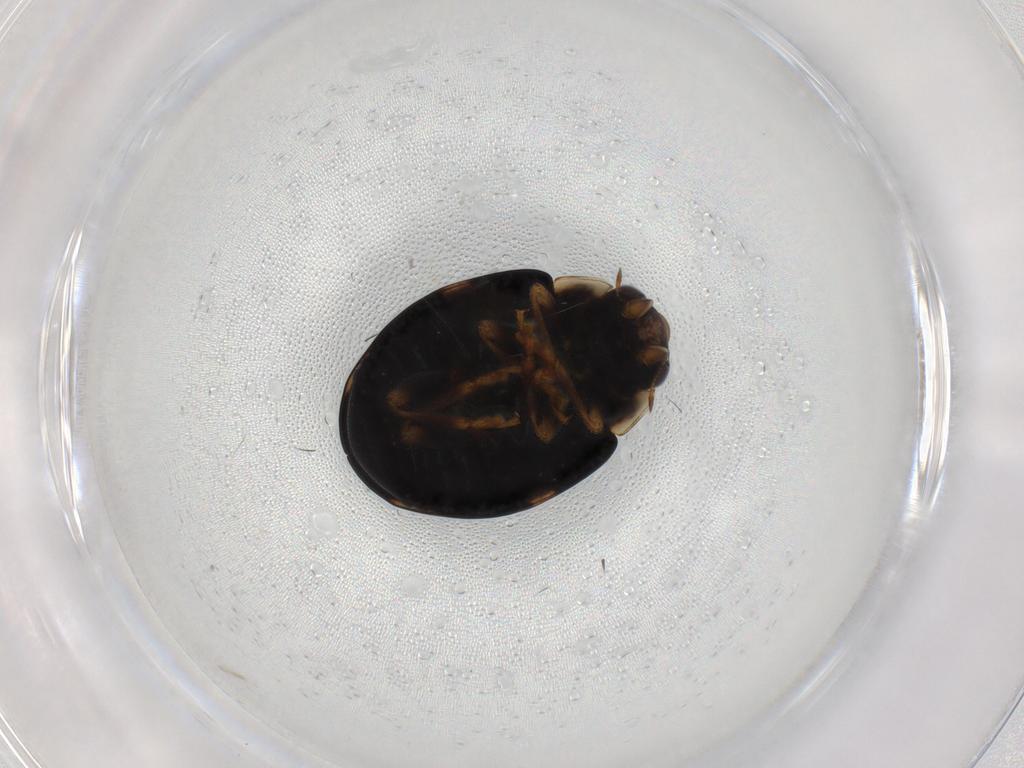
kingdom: Animalia
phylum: Arthropoda
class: Insecta
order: Coleoptera
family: Coccinellidae
